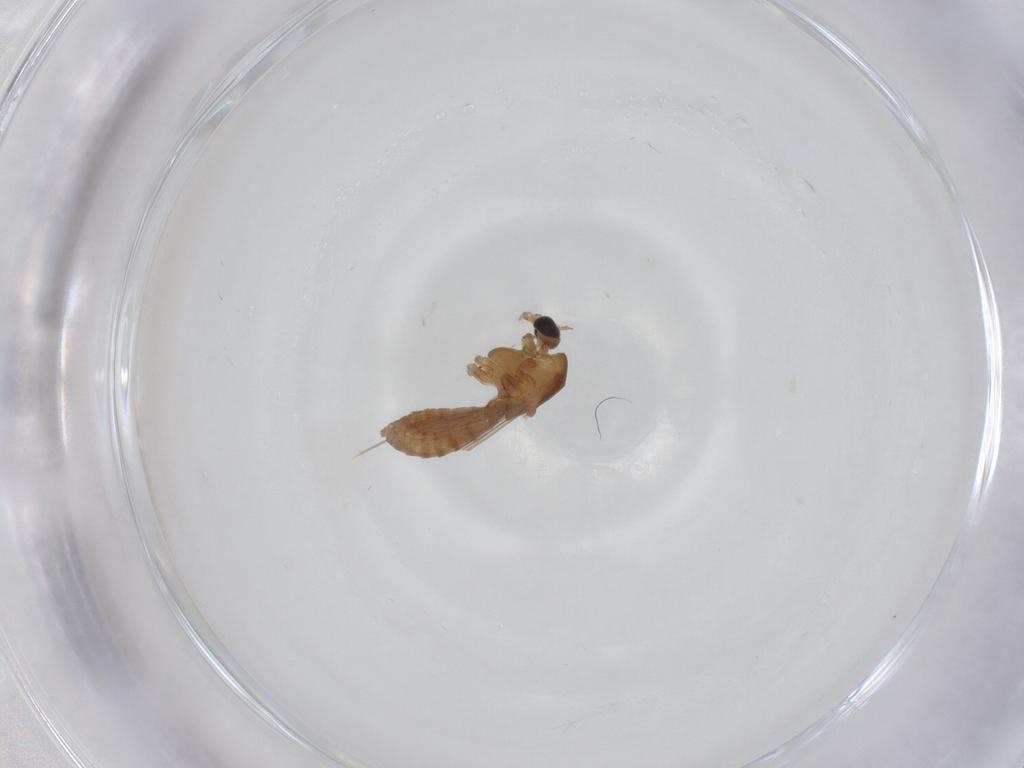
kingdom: Animalia
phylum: Arthropoda
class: Insecta
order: Diptera
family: Chironomidae
